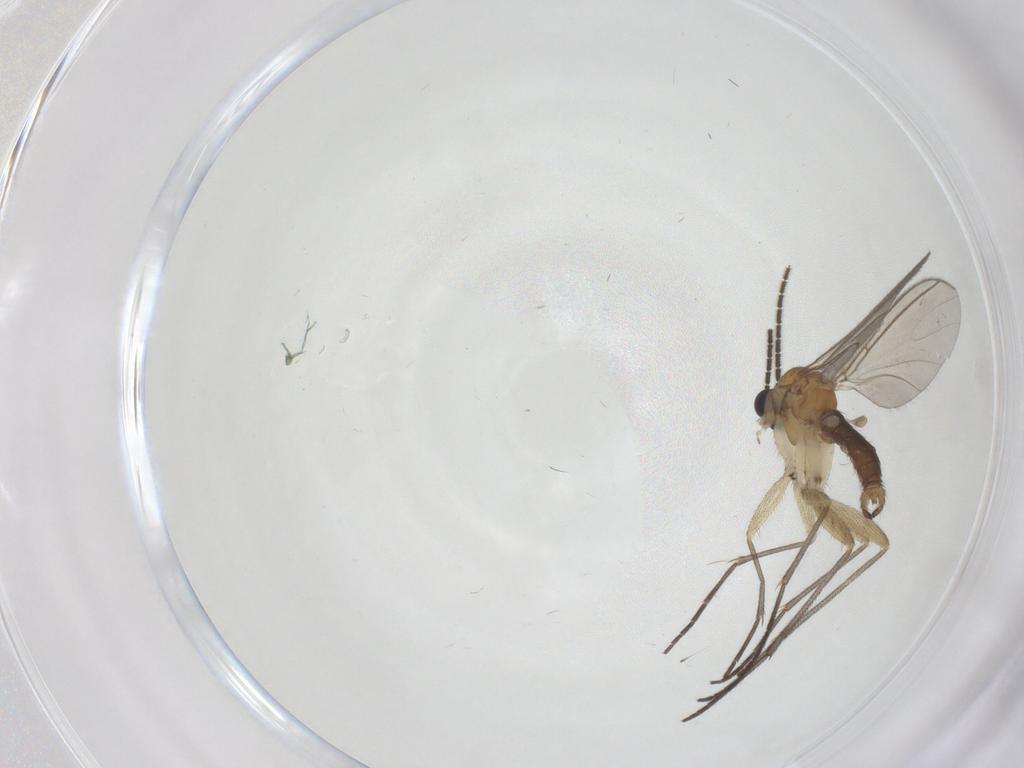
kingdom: Animalia
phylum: Arthropoda
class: Insecta
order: Diptera
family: Sciaridae
